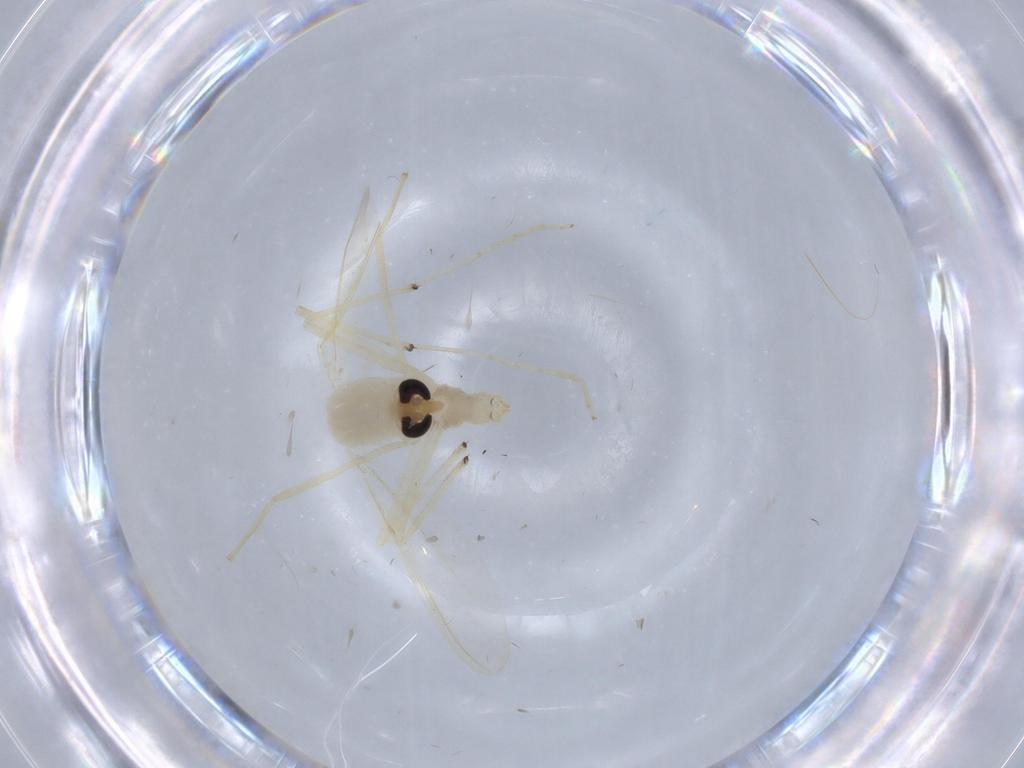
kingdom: Animalia
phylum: Arthropoda
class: Insecta
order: Diptera
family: Chironomidae
